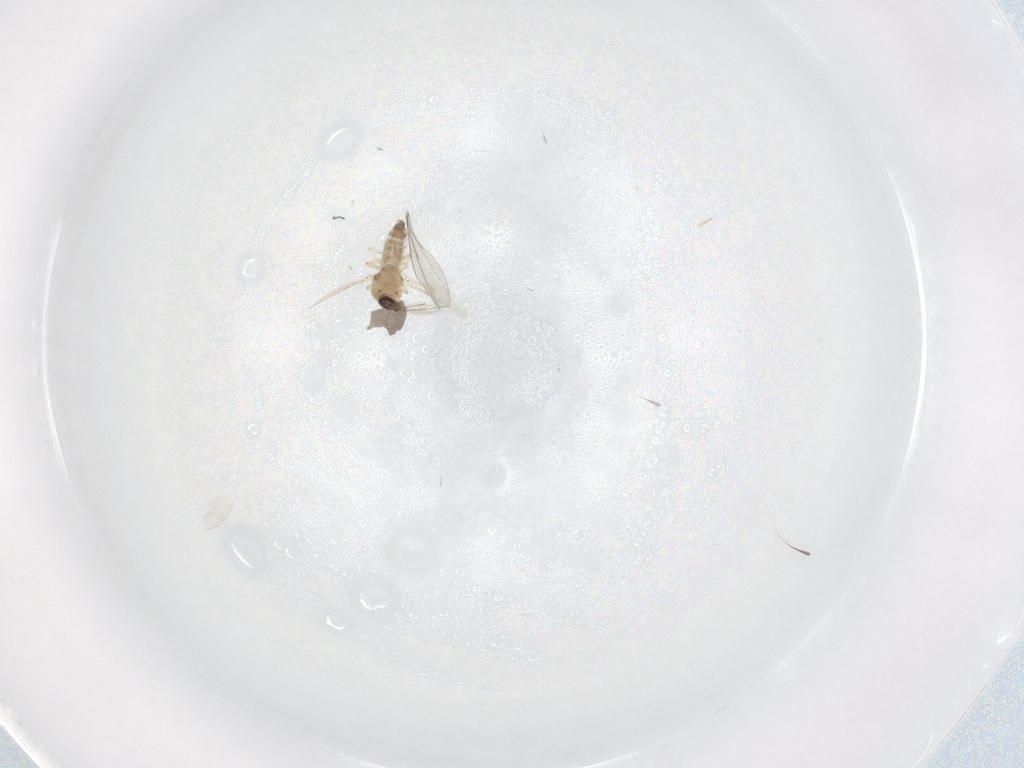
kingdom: Animalia
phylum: Arthropoda
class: Insecta
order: Diptera
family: Ceratopogonidae
